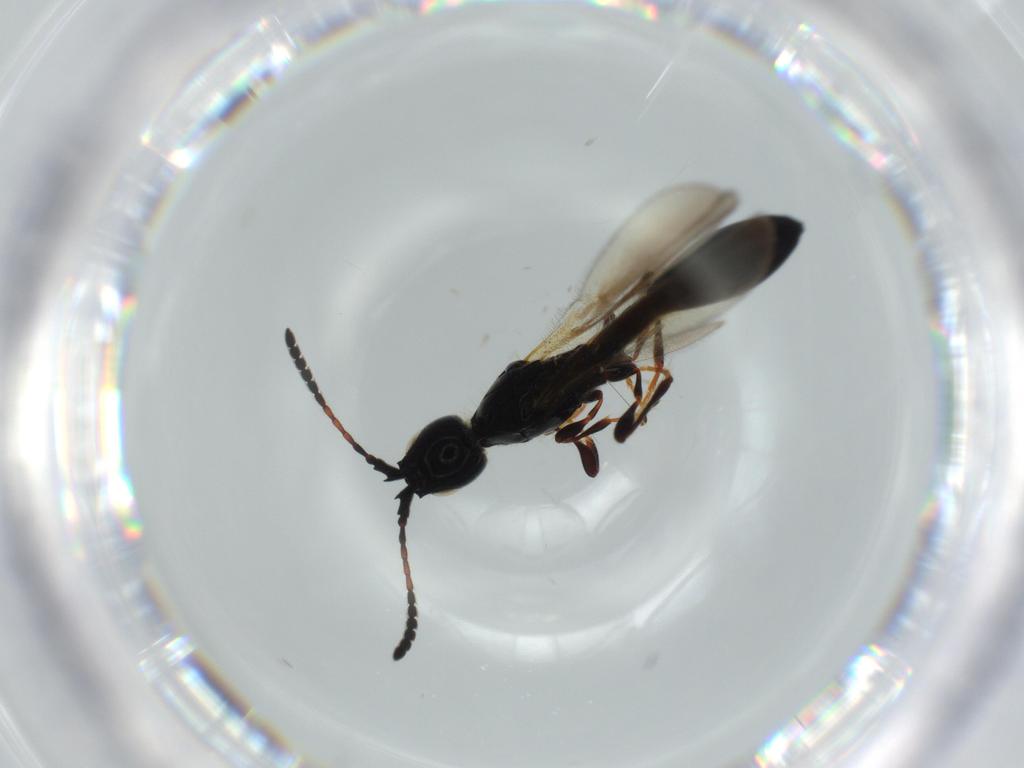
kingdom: Animalia
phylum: Arthropoda
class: Insecta
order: Hymenoptera
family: Diapriidae
